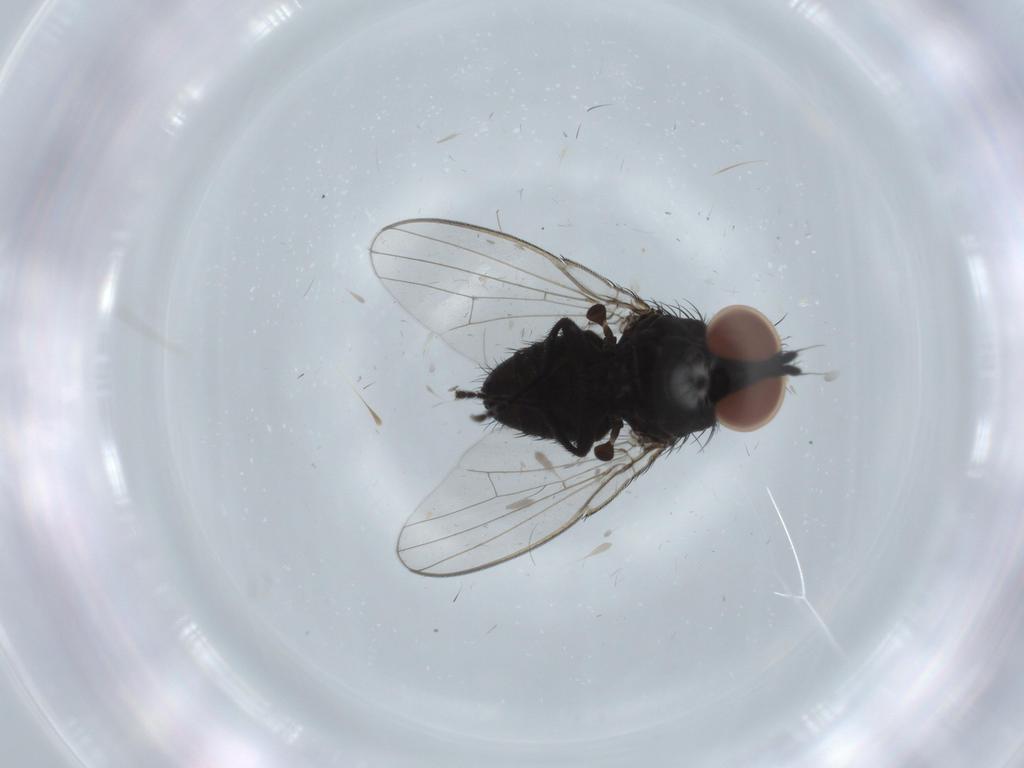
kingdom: Animalia
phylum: Arthropoda
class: Insecta
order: Diptera
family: Milichiidae
